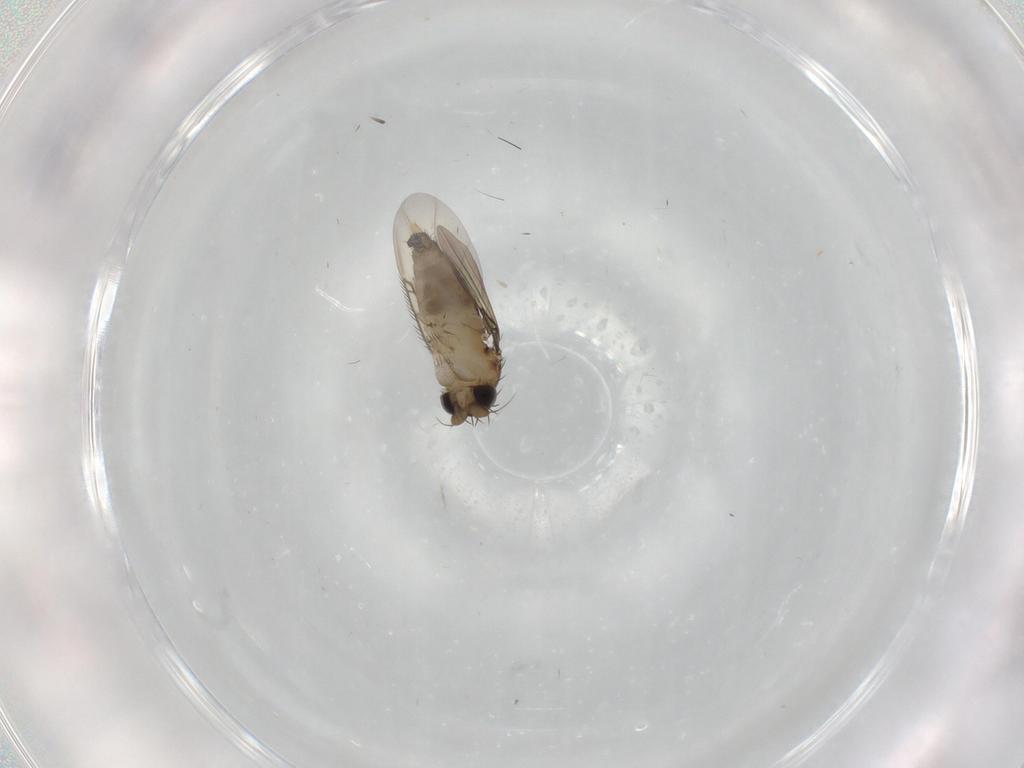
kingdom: Animalia
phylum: Arthropoda
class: Insecta
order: Diptera
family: Phoridae
